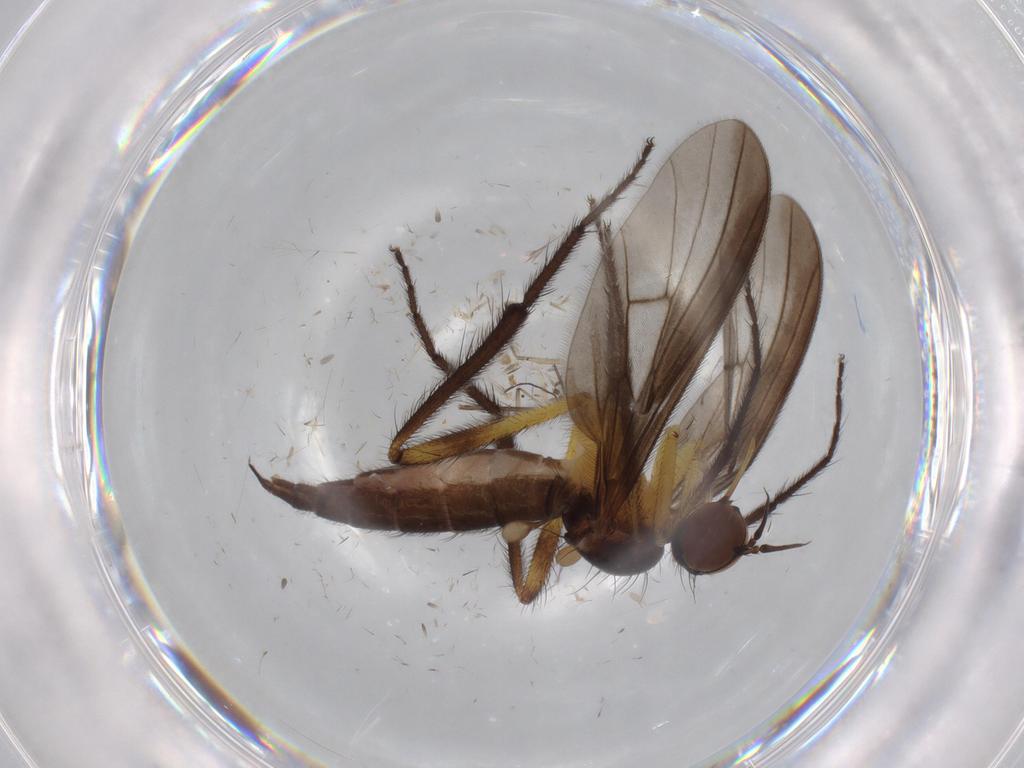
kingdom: Animalia
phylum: Arthropoda
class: Insecta
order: Diptera
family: Empididae
